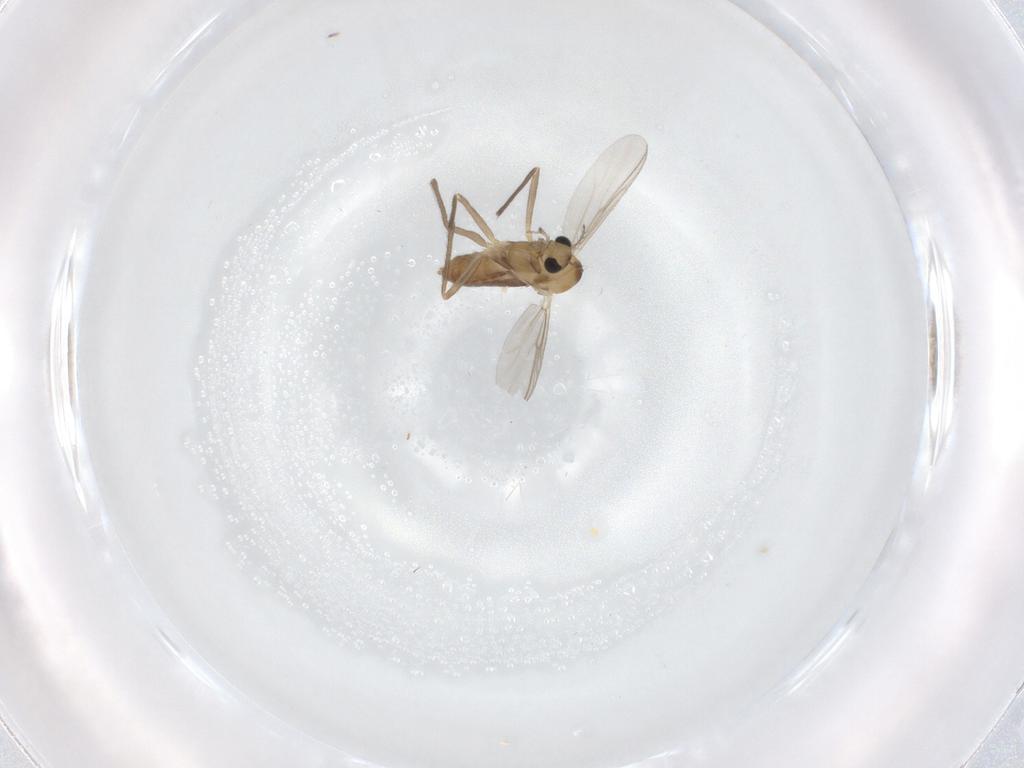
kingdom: Animalia
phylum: Arthropoda
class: Insecta
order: Diptera
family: Chironomidae
